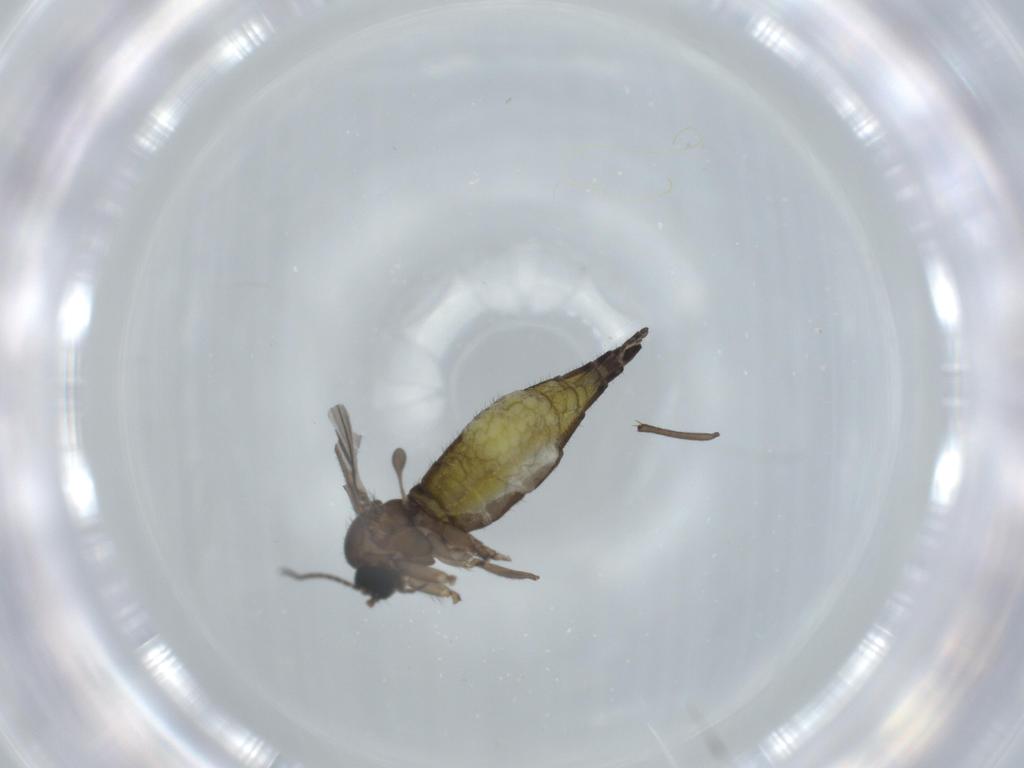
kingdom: Animalia
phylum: Arthropoda
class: Insecta
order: Diptera
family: Sciaridae
